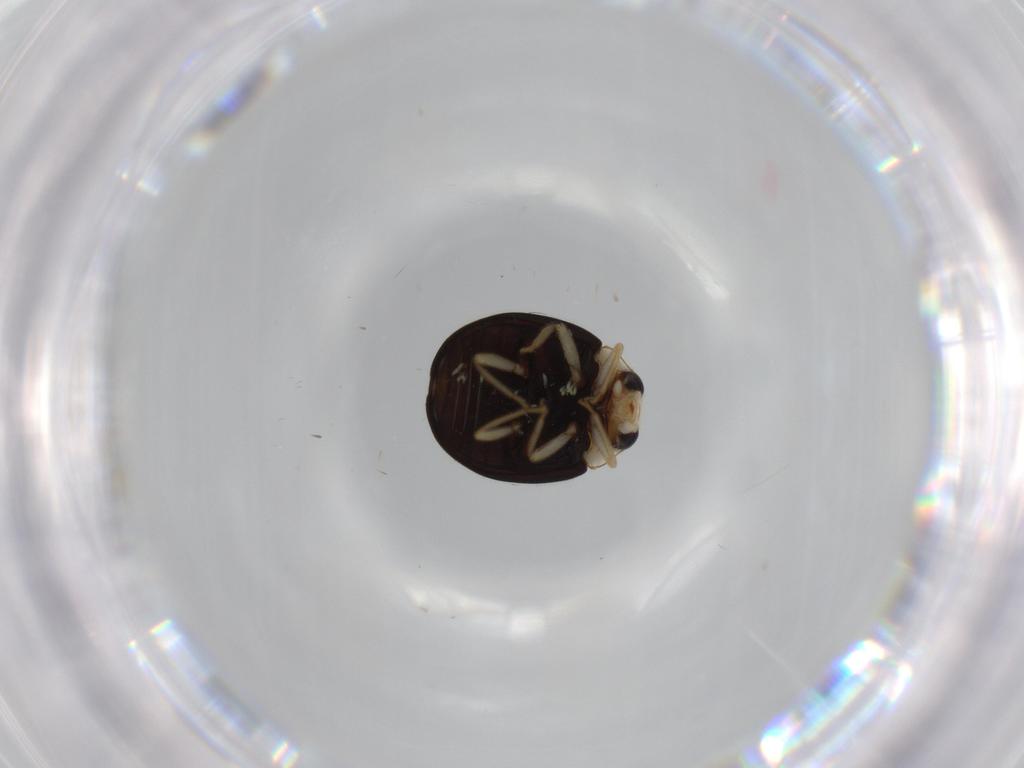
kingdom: Animalia
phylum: Arthropoda
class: Insecta
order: Coleoptera
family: Coccinellidae
